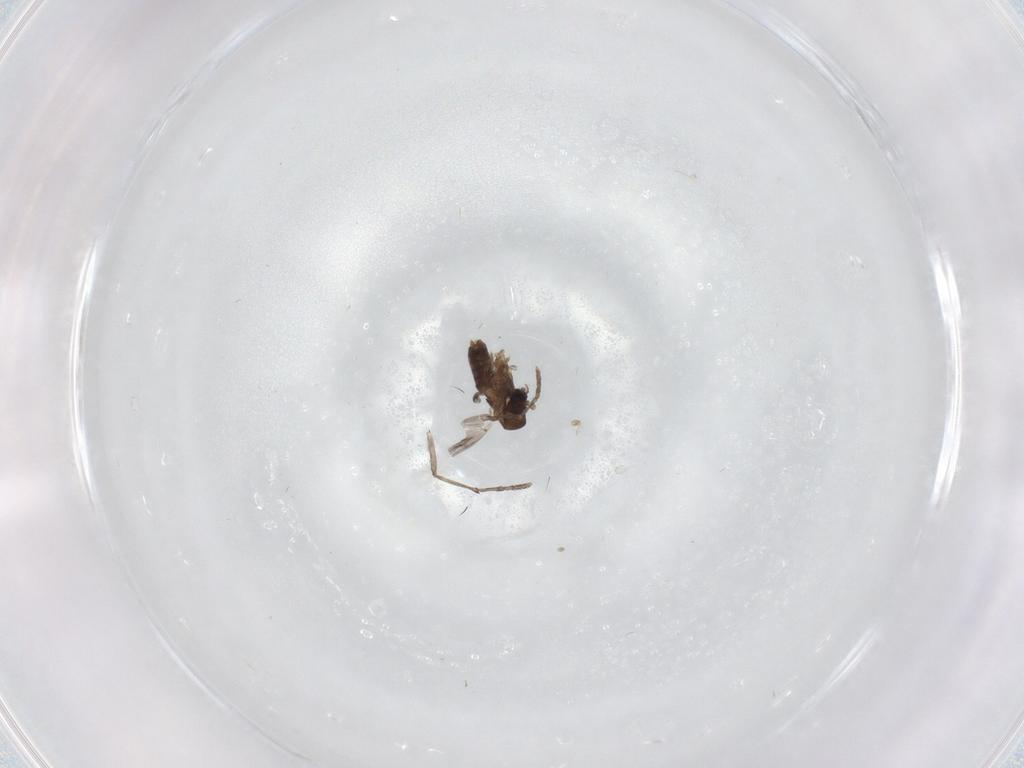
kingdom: Animalia
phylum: Arthropoda
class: Insecta
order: Diptera
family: Psychodidae
